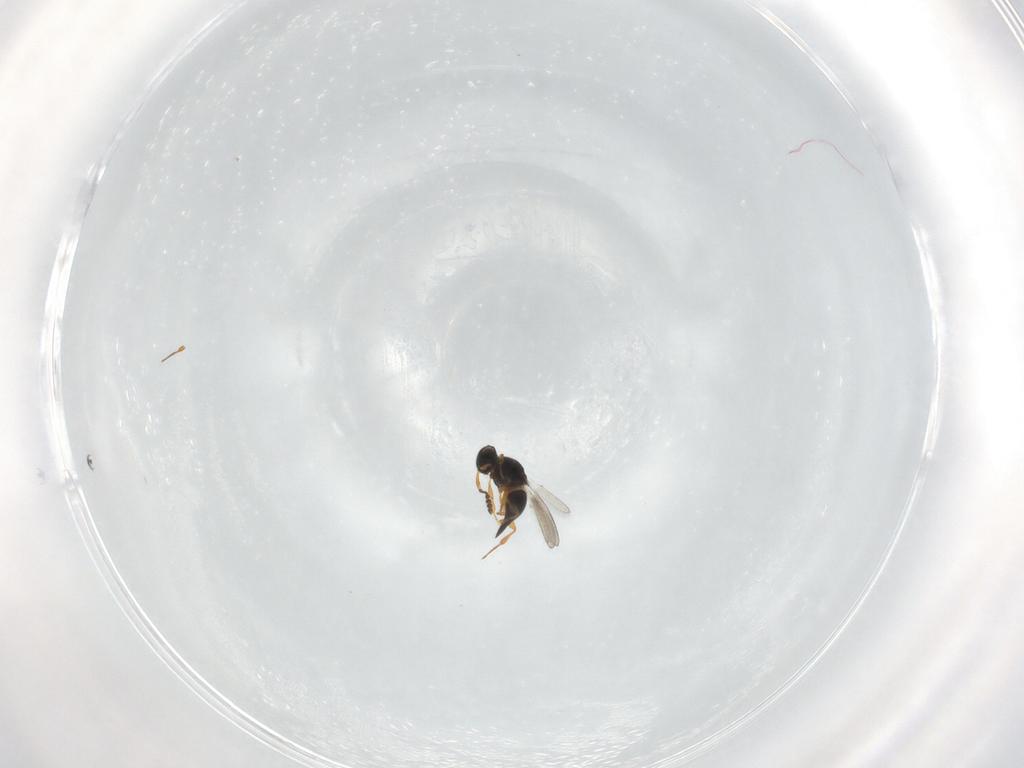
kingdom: Animalia
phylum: Arthropoda
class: Insecta
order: Hymenoptera
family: Platygastridae
